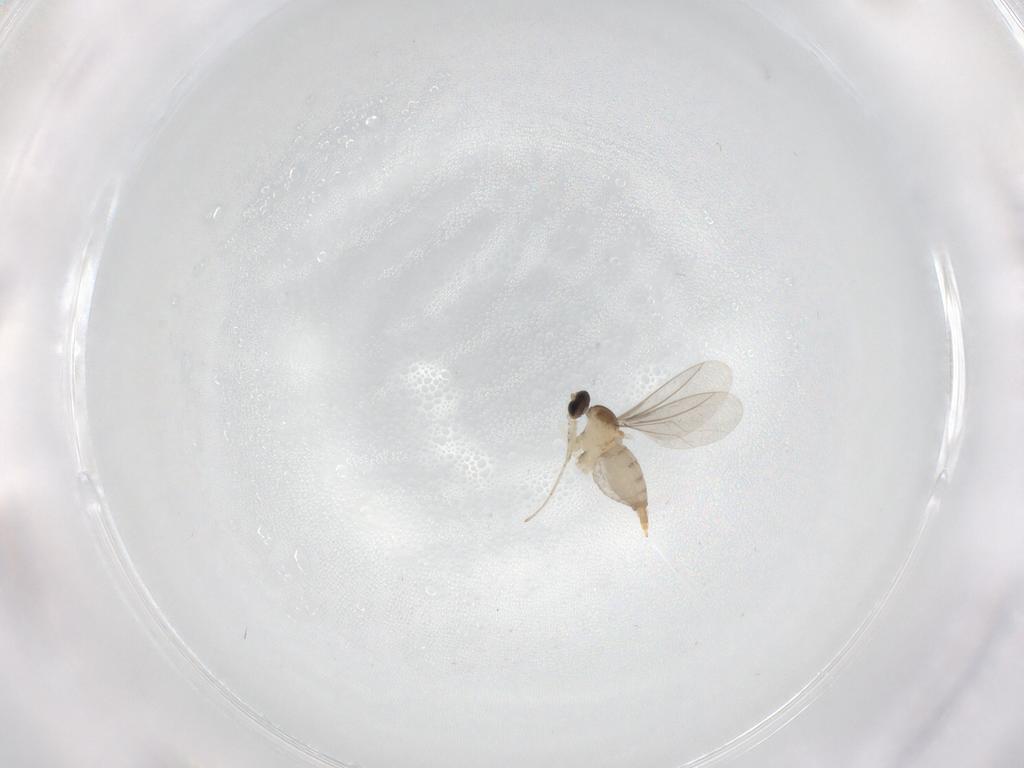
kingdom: Animalia
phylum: Arthropoda
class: Insecta
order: Diptera
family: Cecidomyiidae
